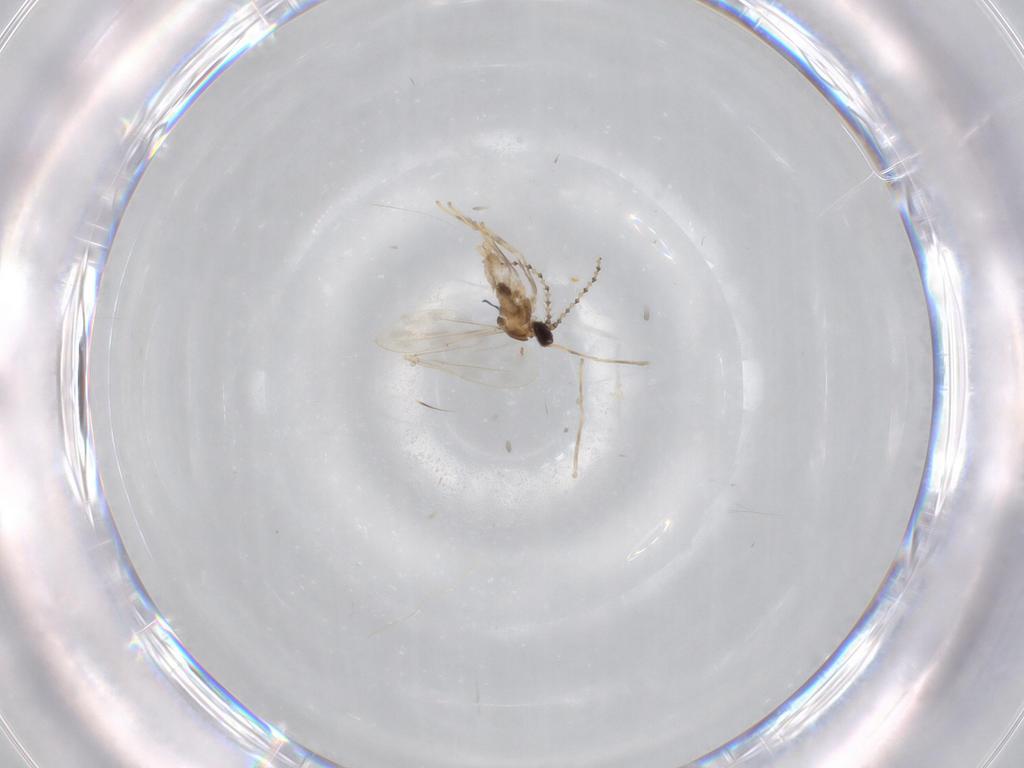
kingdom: Animalia
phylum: Arthropoda
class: Insecta
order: Diptera
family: Cecidomyiidae
